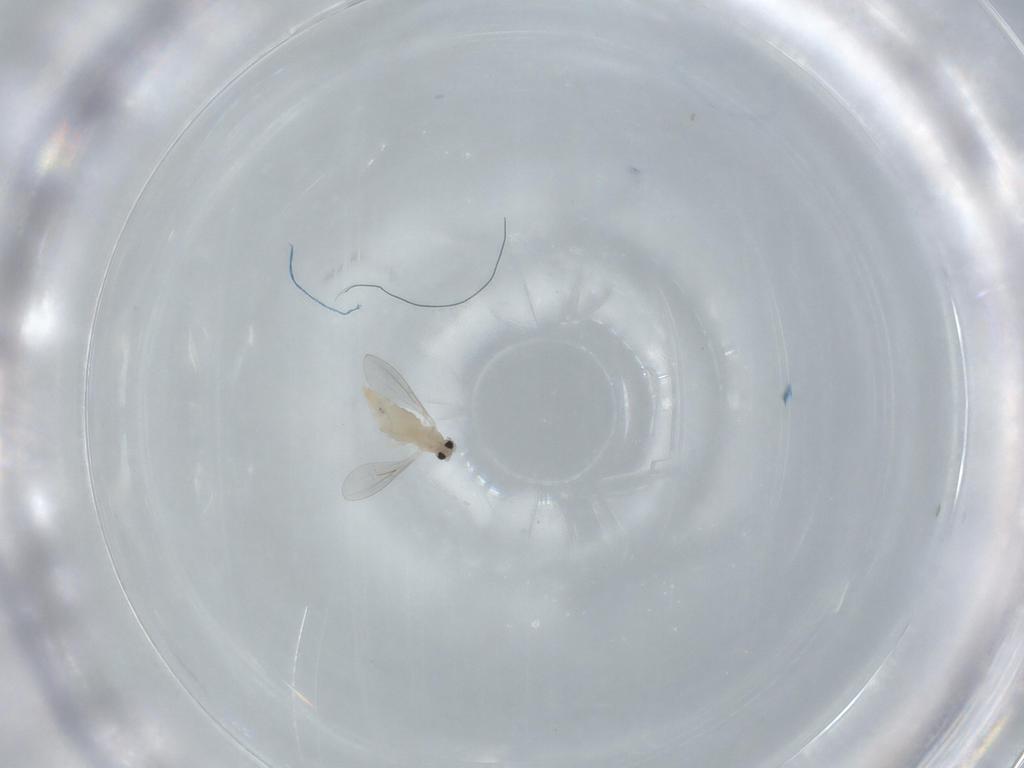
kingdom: Animalia
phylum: Arthropoda
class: Insecta
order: Diptera
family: Cecidomyiidae
